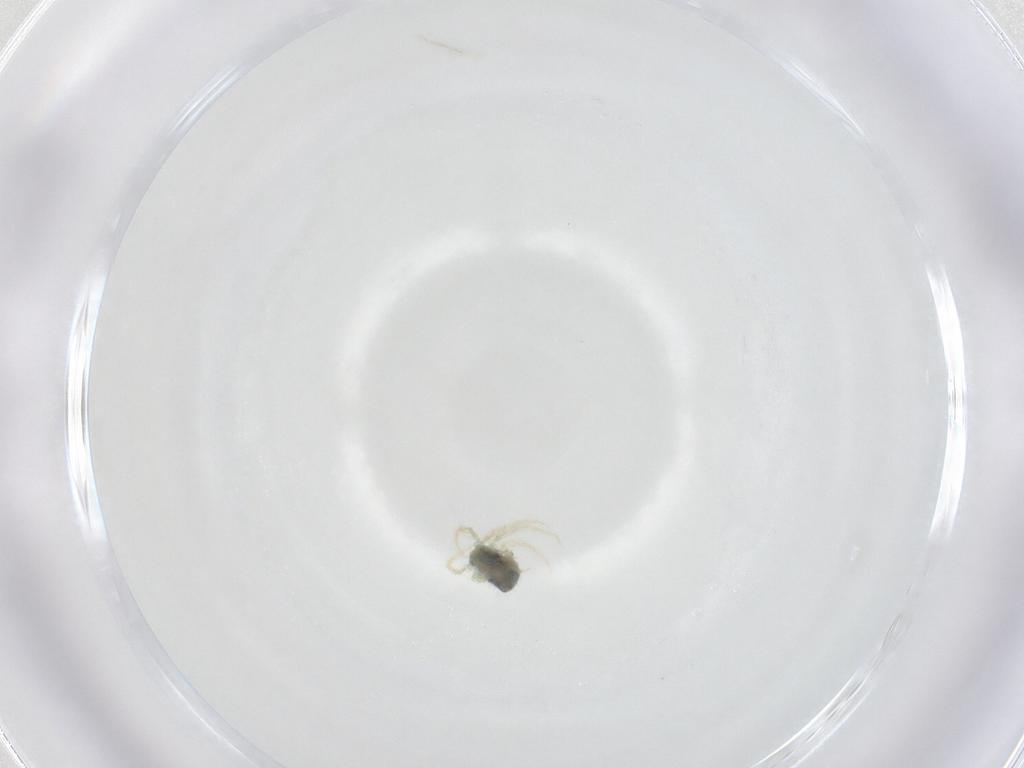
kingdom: Animalia
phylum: Arthropoda
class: Arachnida
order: Trombidiformes
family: Anystidae
